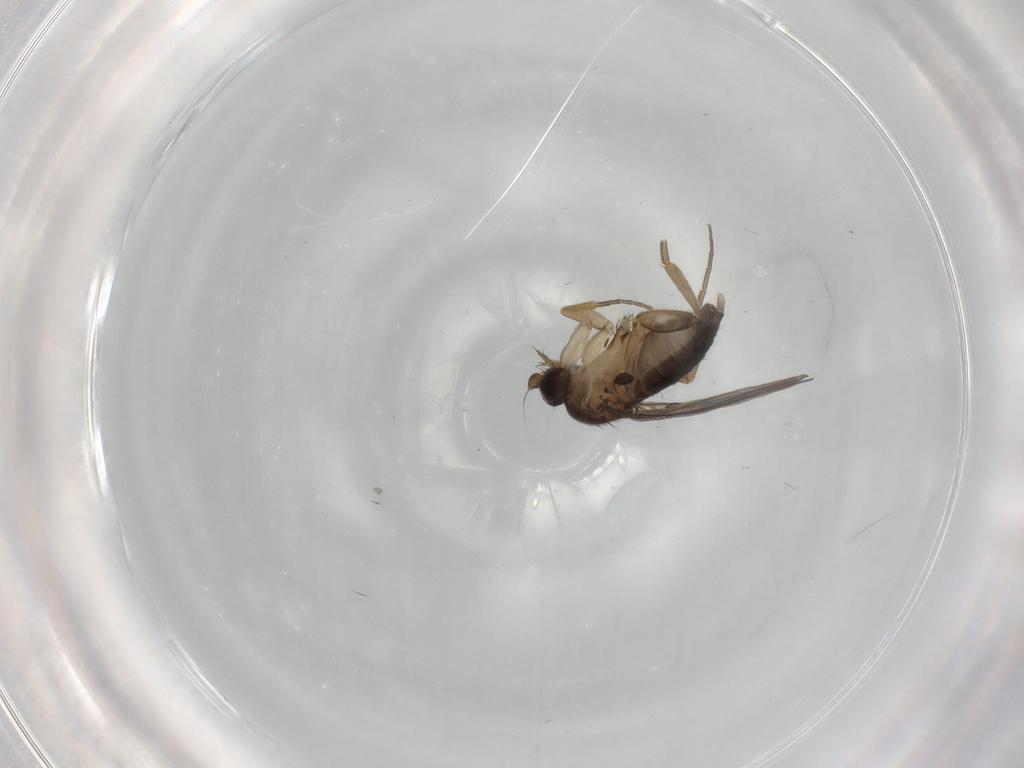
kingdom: Animalia
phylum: Arthropoda
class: Insecta
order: Diptera
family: Phoridae
